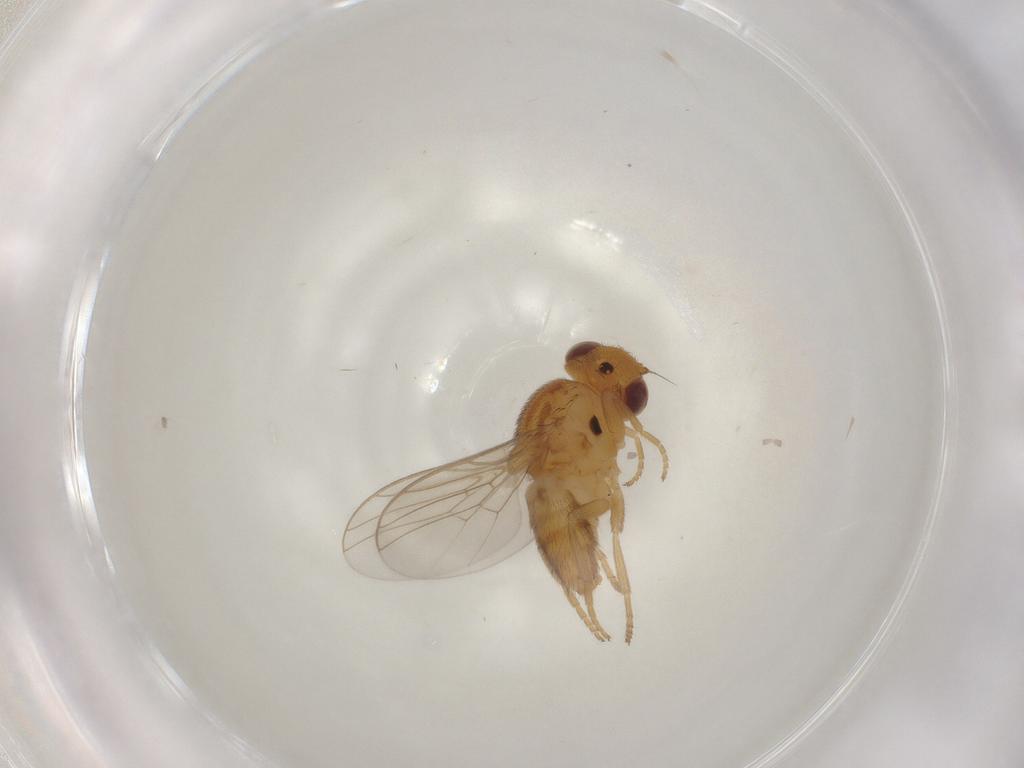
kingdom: Animalia
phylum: Arthropoda
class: Insecta
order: Diptera
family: Chloropidae
